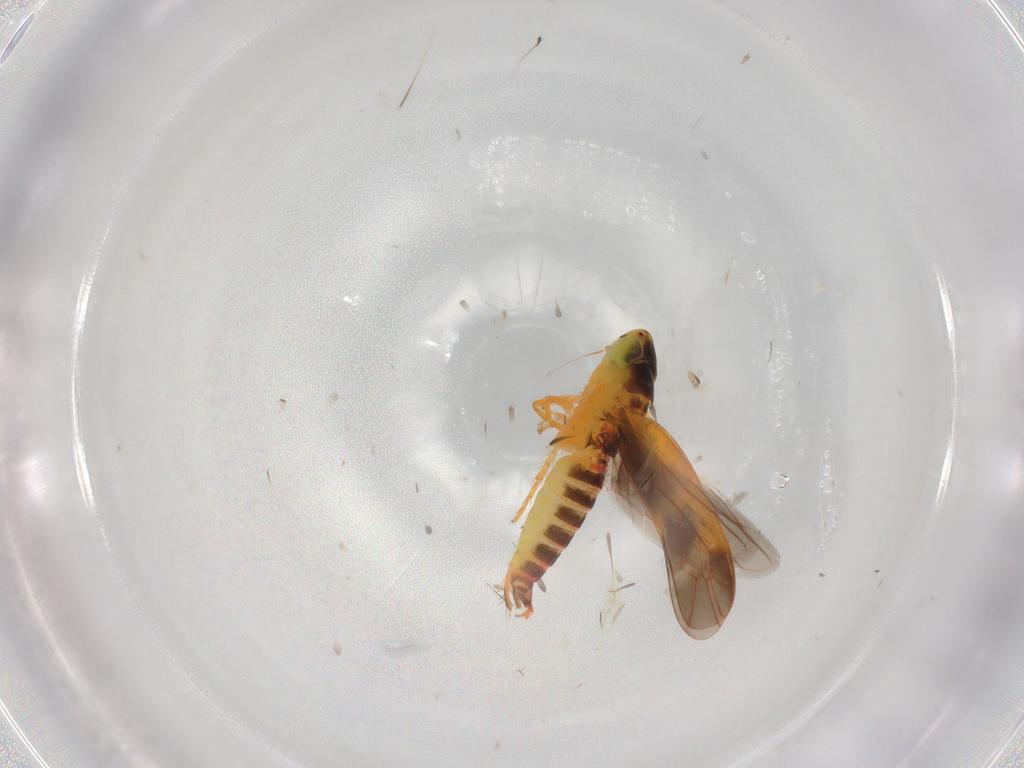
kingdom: Animalia
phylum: Arthropoda
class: Insecta
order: Hemiptera
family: Cicadellidae
